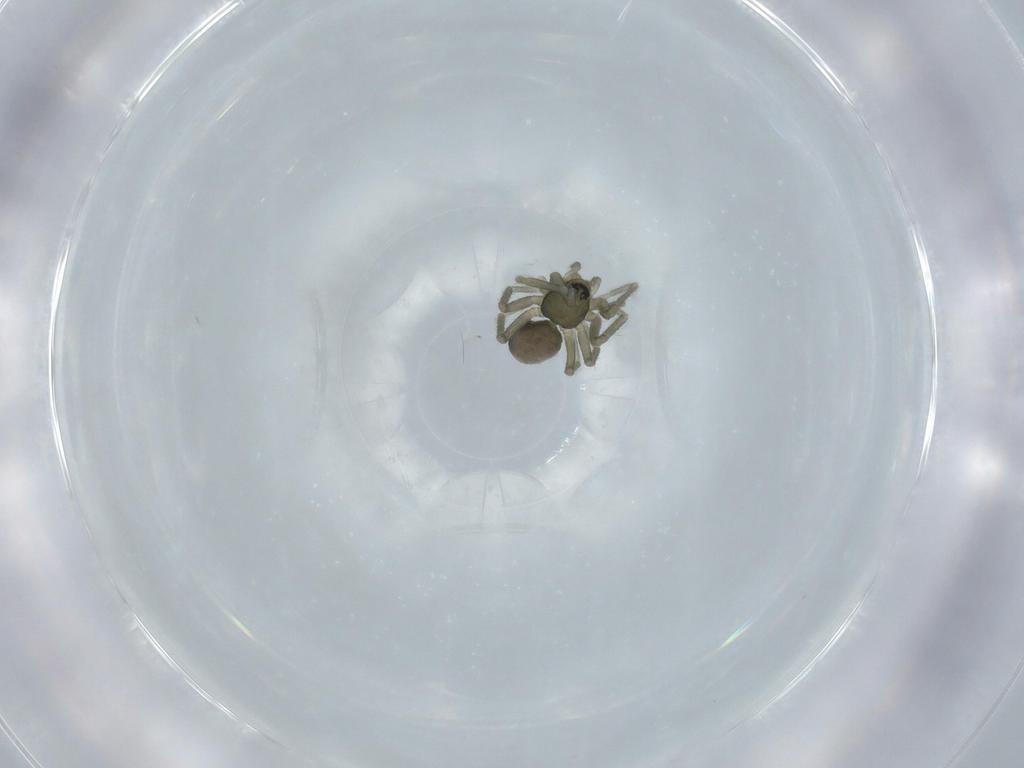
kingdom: Animalia
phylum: Arthropoda
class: Arachnida
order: Araneae
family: Linyphiidae
